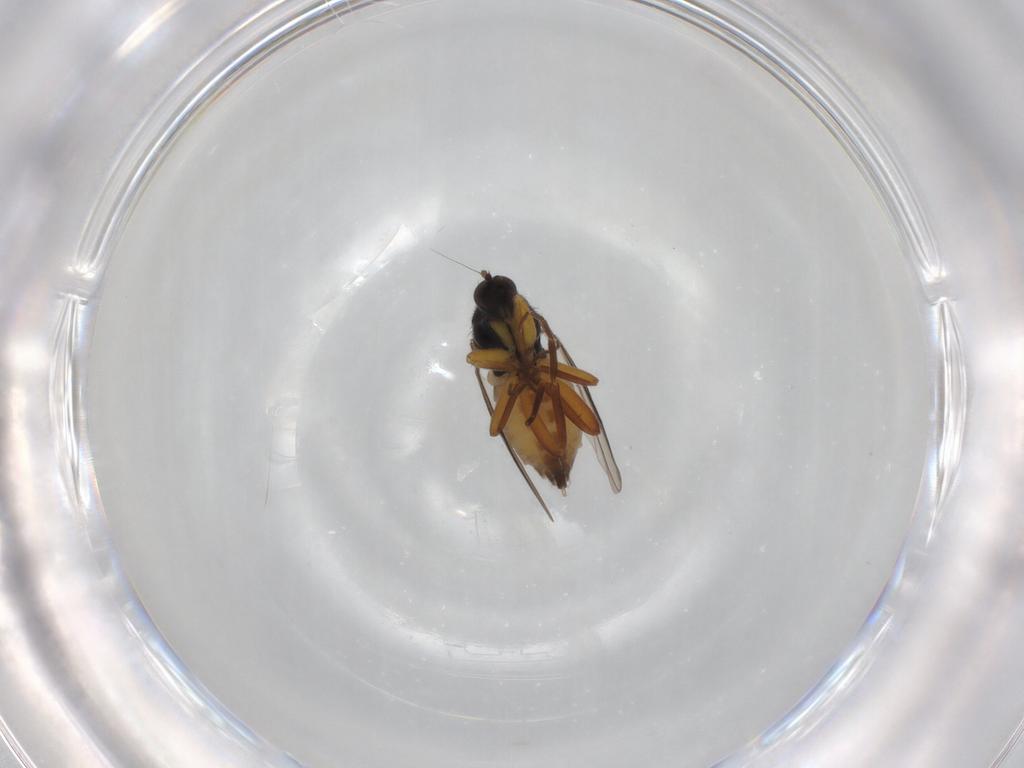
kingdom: Animalia
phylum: Arthropoda
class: Insecta
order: Diptera
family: Hybotidae
